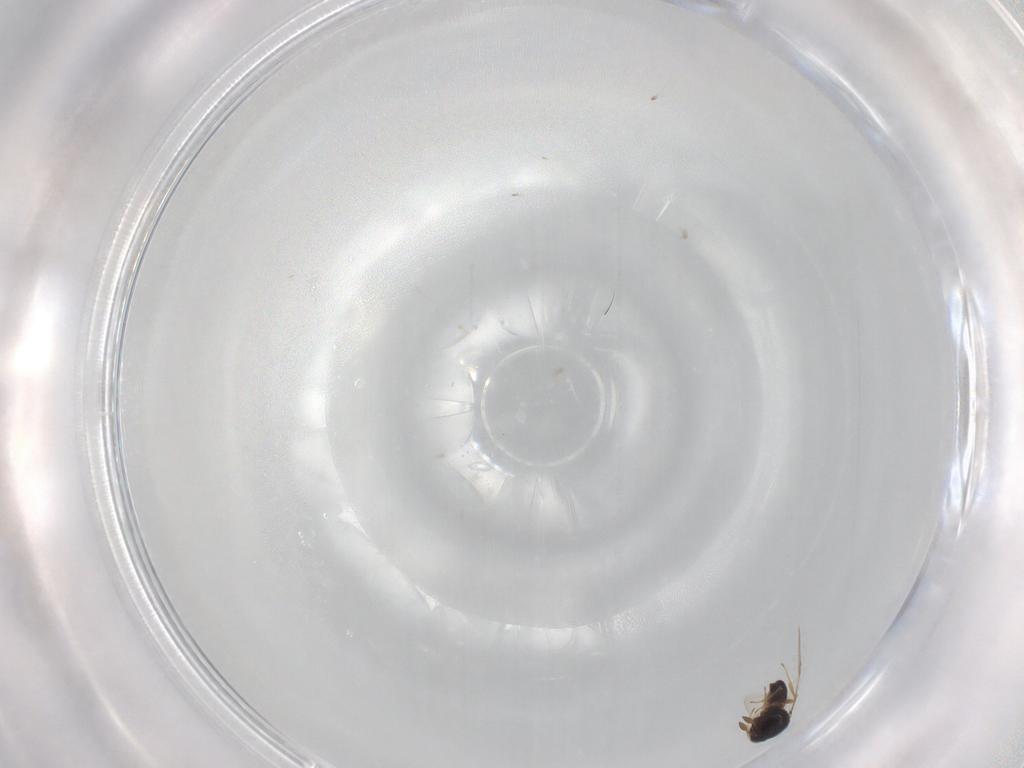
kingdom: Animalia
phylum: Arthropoda
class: Insecta
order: Hymenoptera
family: Scelionidae
